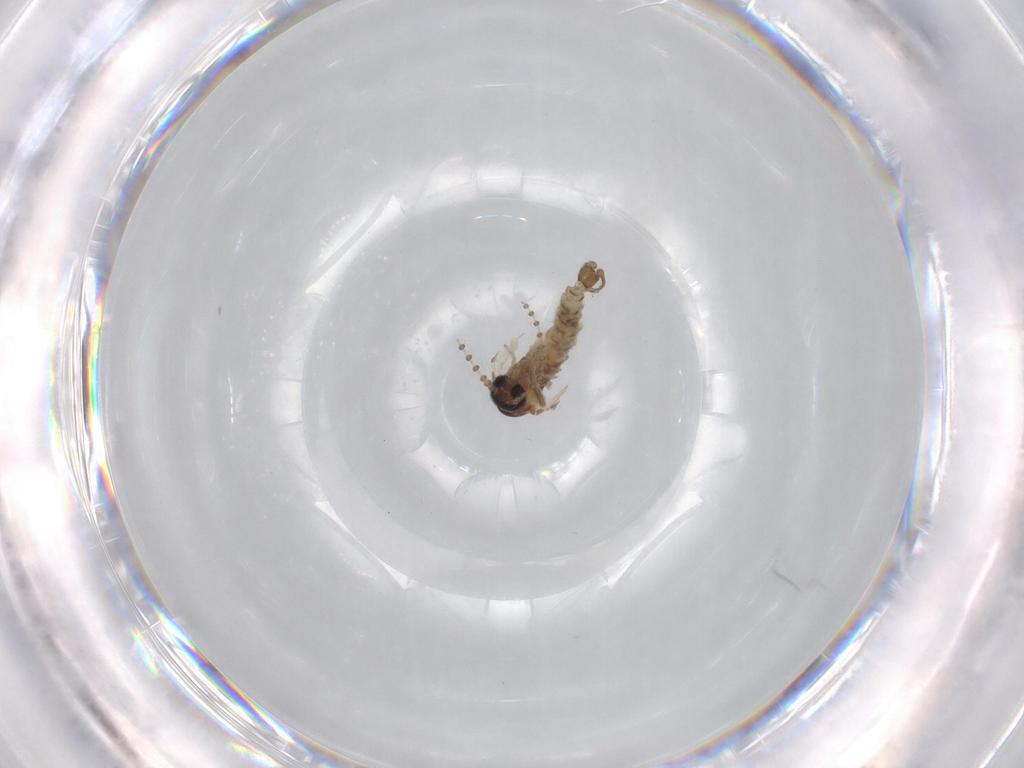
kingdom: Animalia
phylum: Arthropoda
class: Insecta
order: Diptera
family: Psychodidae
